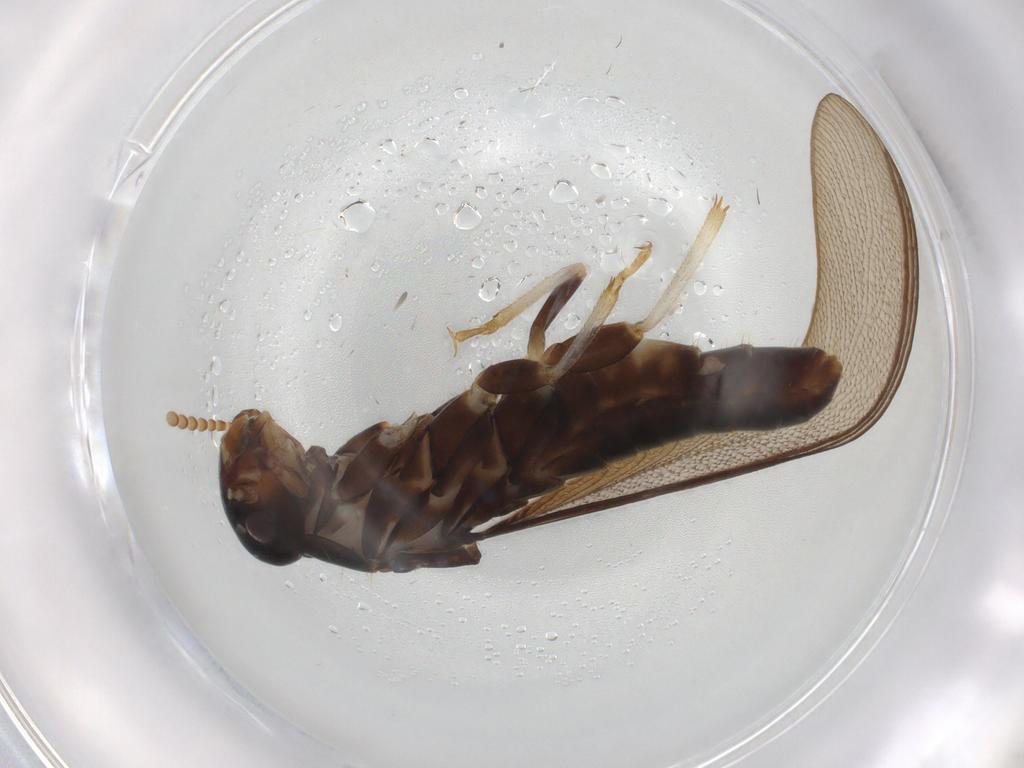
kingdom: Animalia
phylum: Arthropoda
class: Insecta
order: Blattodea
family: Kalotermitidae
